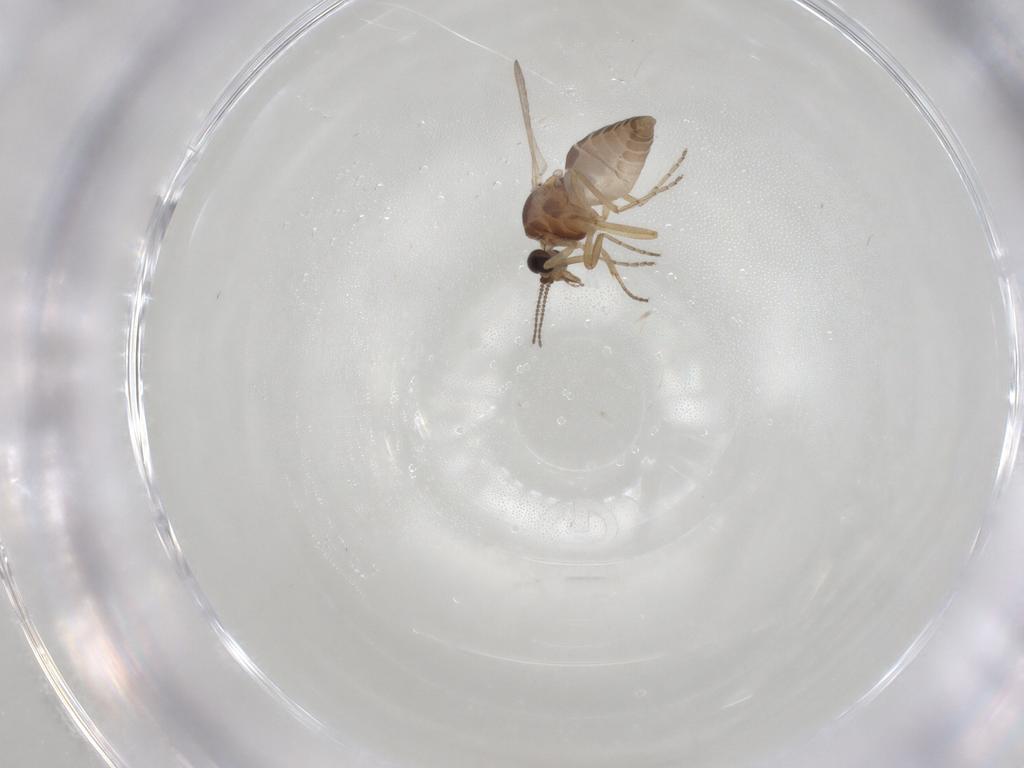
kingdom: Animalia
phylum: Arthropoda
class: Insecta
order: Diptera
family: Ceratopogonidae
